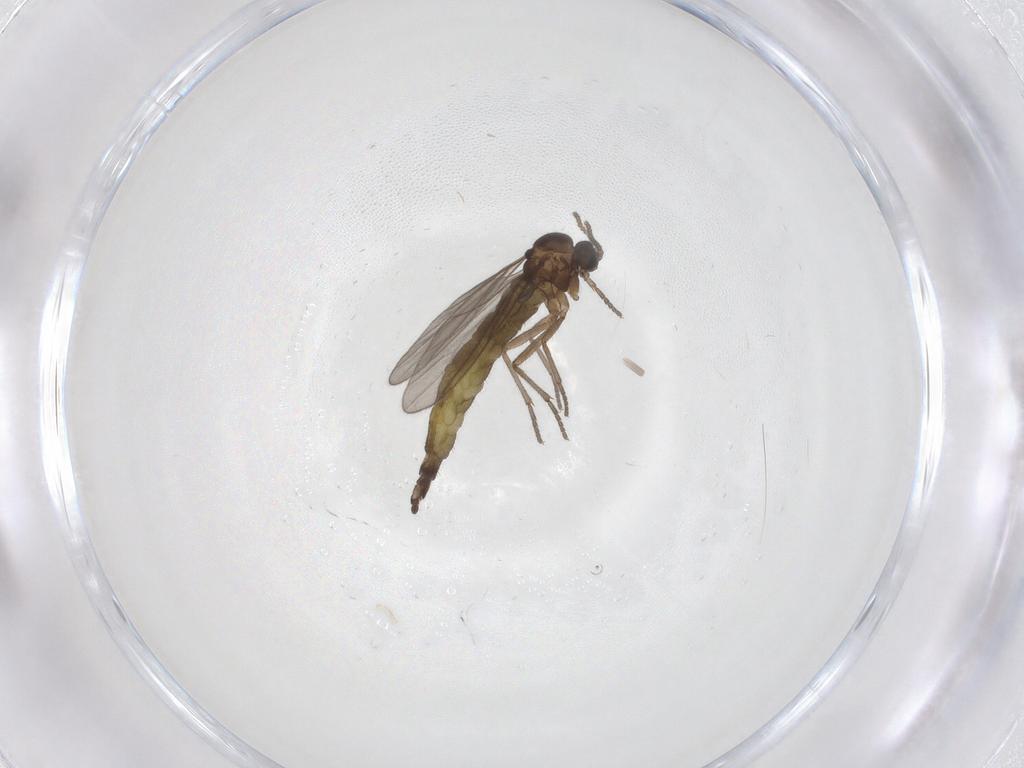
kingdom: Animalia
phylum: Arthropoda
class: Insecta
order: Diptera
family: Sciaridae
